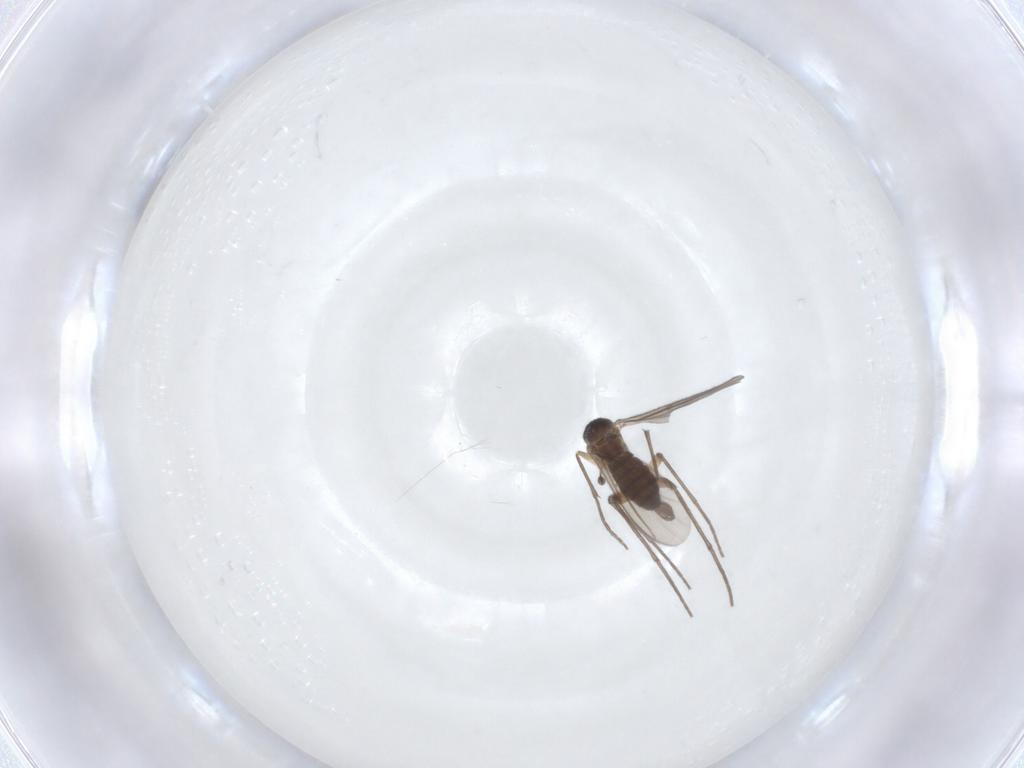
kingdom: Animalia
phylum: Arthropoda
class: Insecta
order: Diptera
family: Sciaridae
